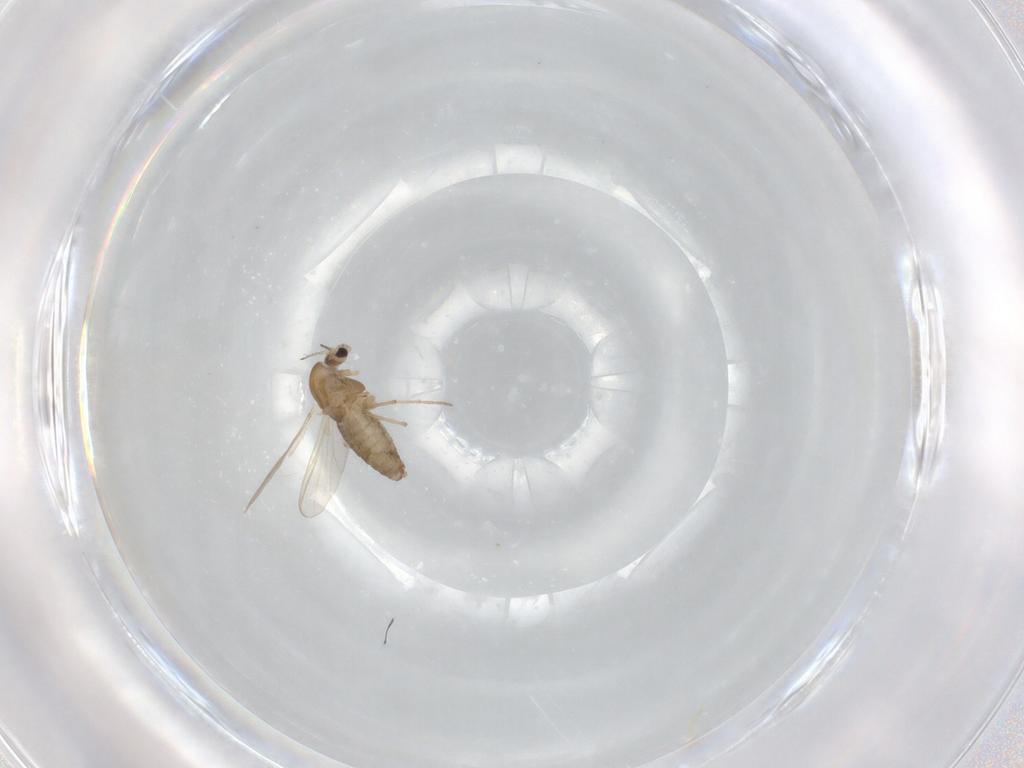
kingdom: Animalia
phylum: Arthropoda
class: Insecta
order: Diptera
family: Chironomidae
